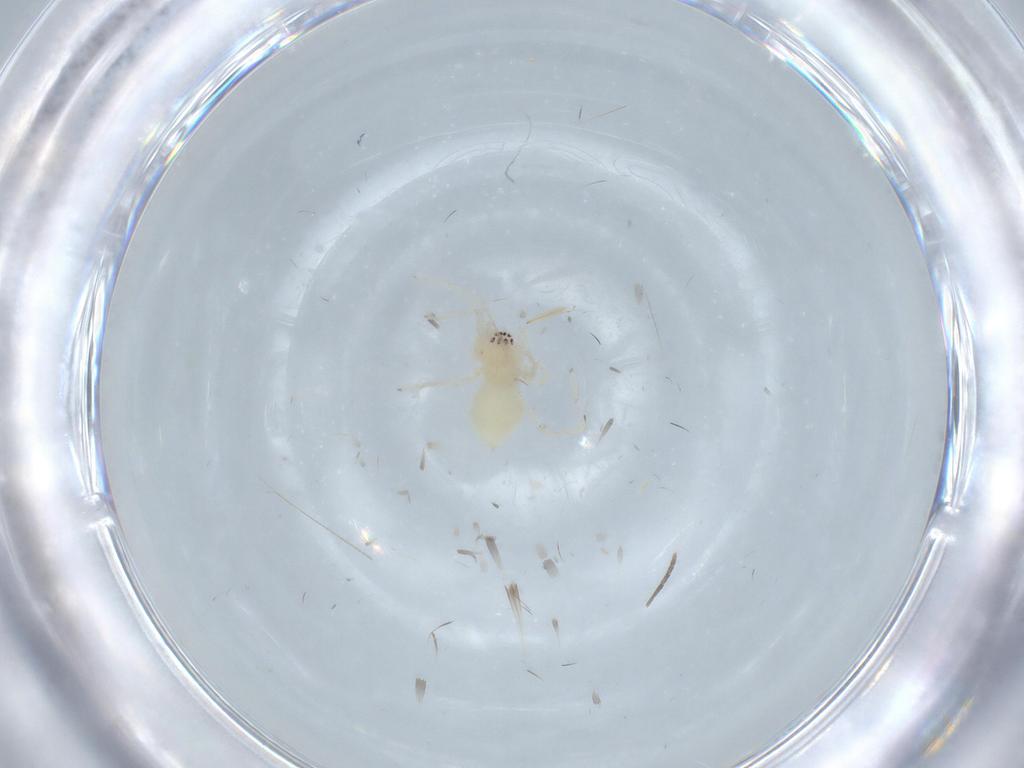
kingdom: Animalia
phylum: Arthropoda
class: Arachnida
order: Araneae
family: Anyphaenidae
